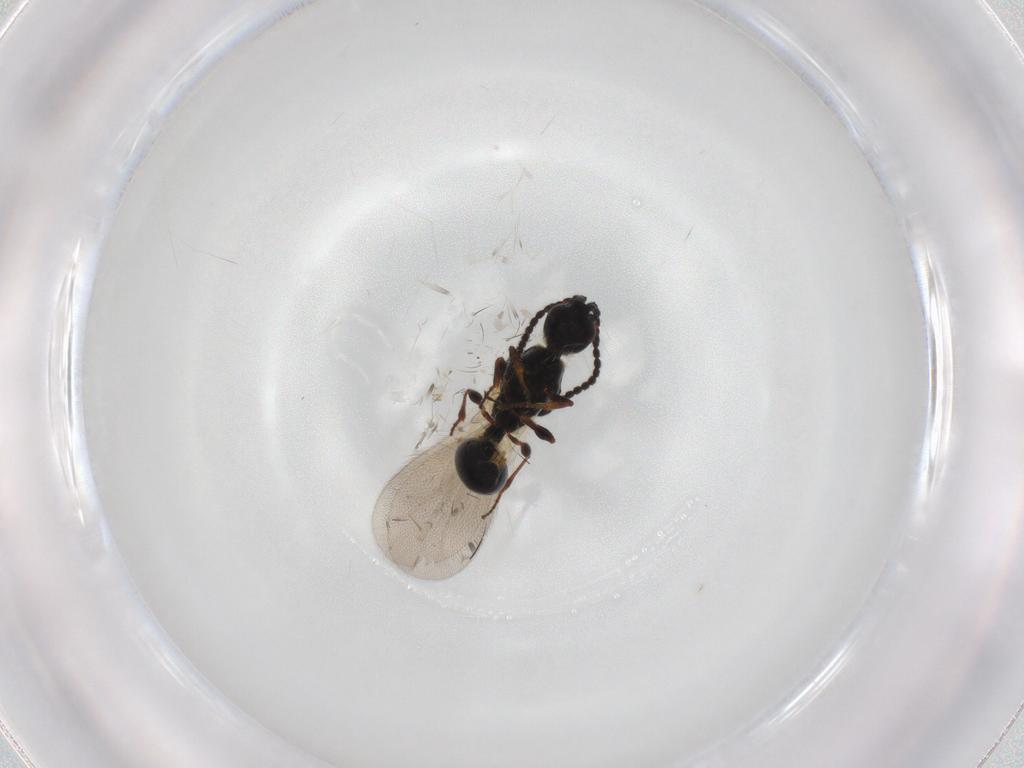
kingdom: Animalia
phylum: Arthropoda
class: Insecta
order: Hymenoptera
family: Diapriidae
